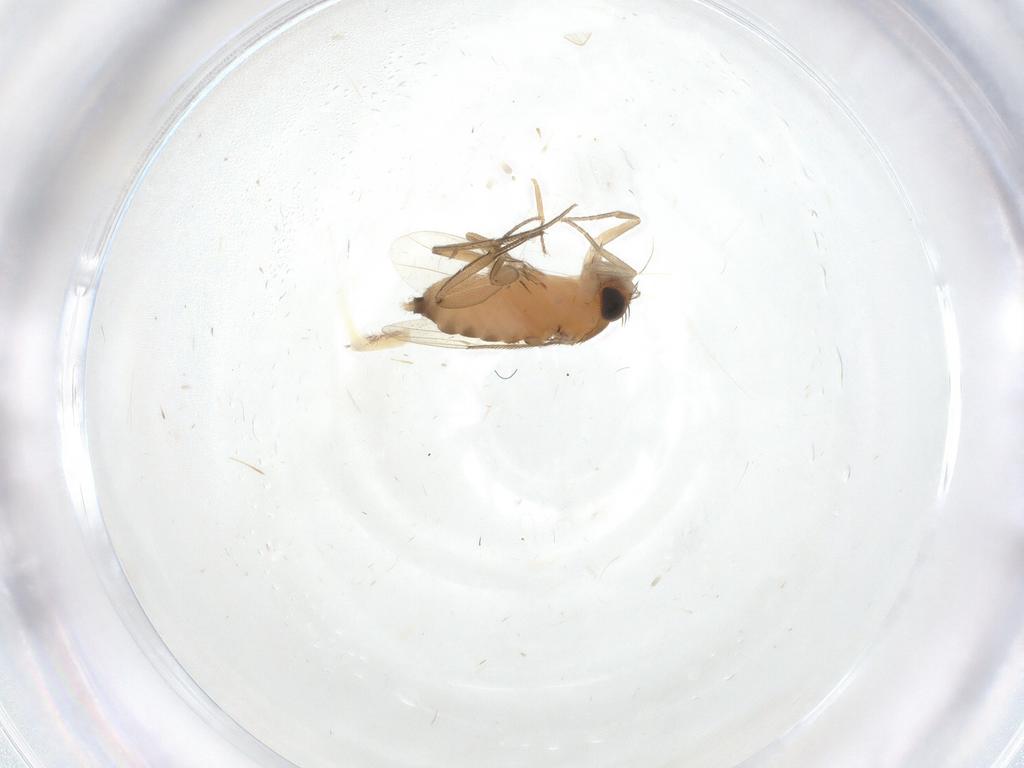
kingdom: Animalia
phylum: Arthropoda
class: Insecta
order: Diptera
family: Phoridae
